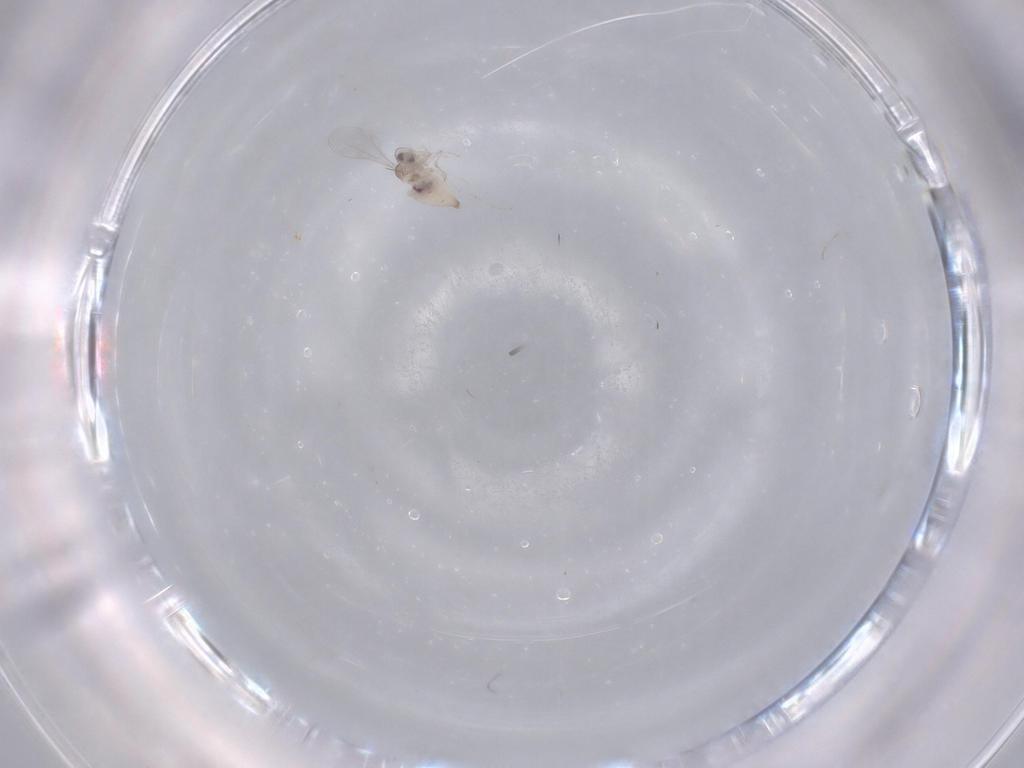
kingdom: Animalia
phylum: Arthropoda
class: Insecta
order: Diptera
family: Cecidomyiidae
